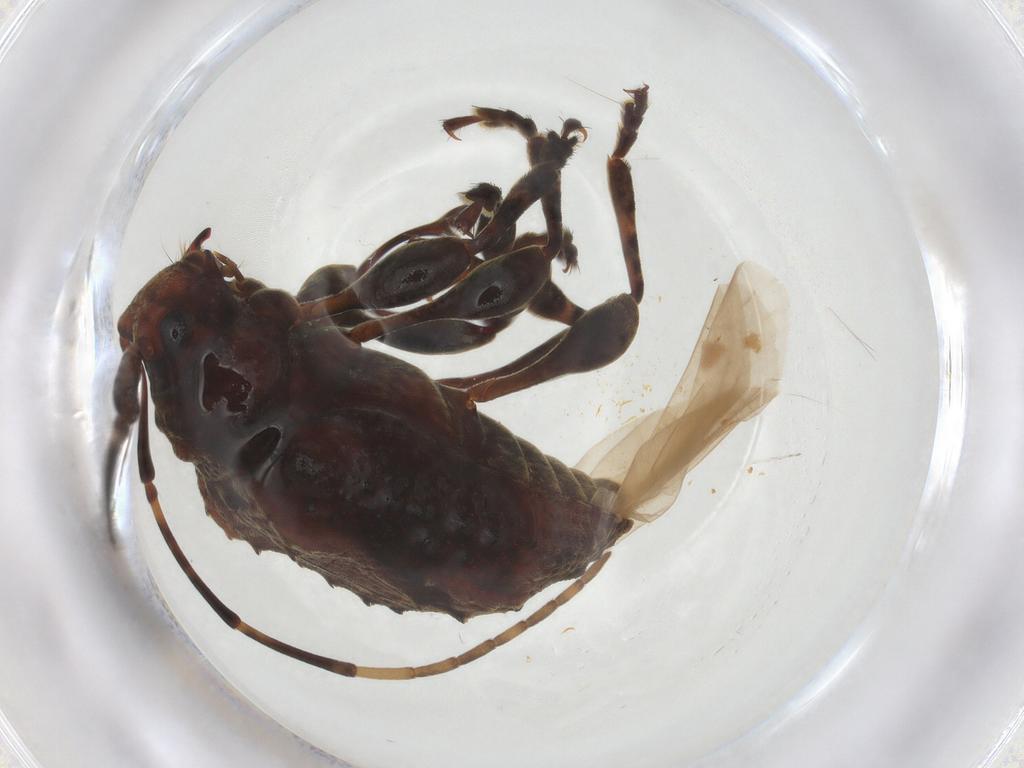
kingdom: Animalia
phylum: Arthropoda
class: Insecta
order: Coleoptera
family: Cerambycidae
